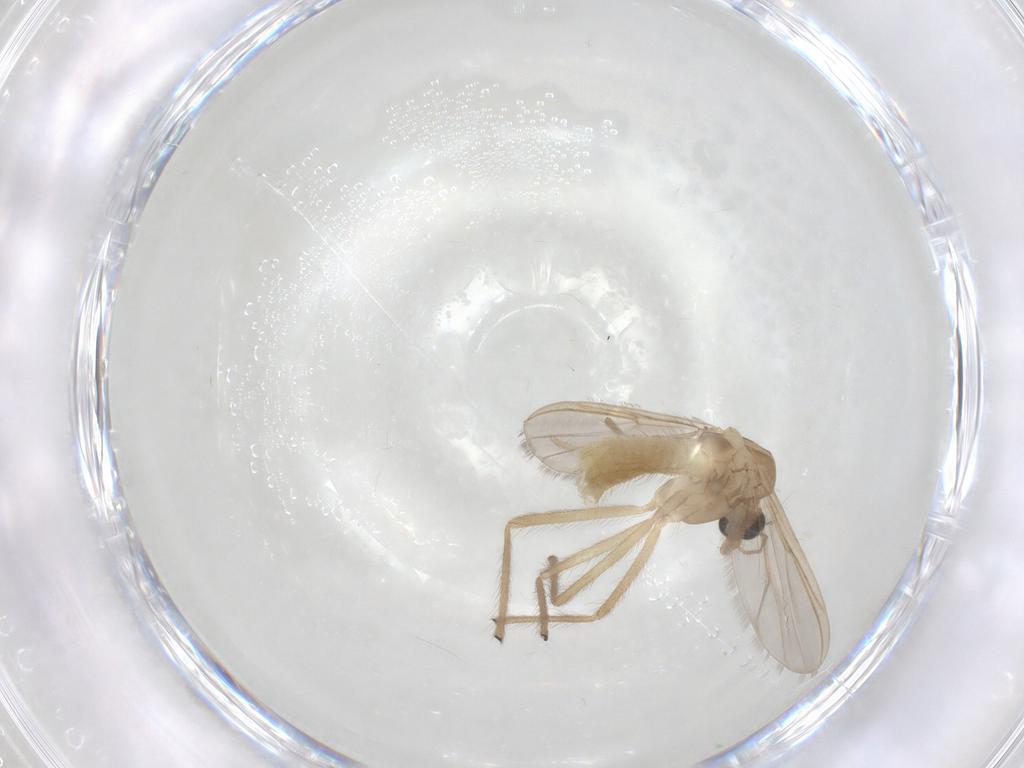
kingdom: Animalia
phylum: Arthropoda
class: Insecta
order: Diptera
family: Chironomidae
